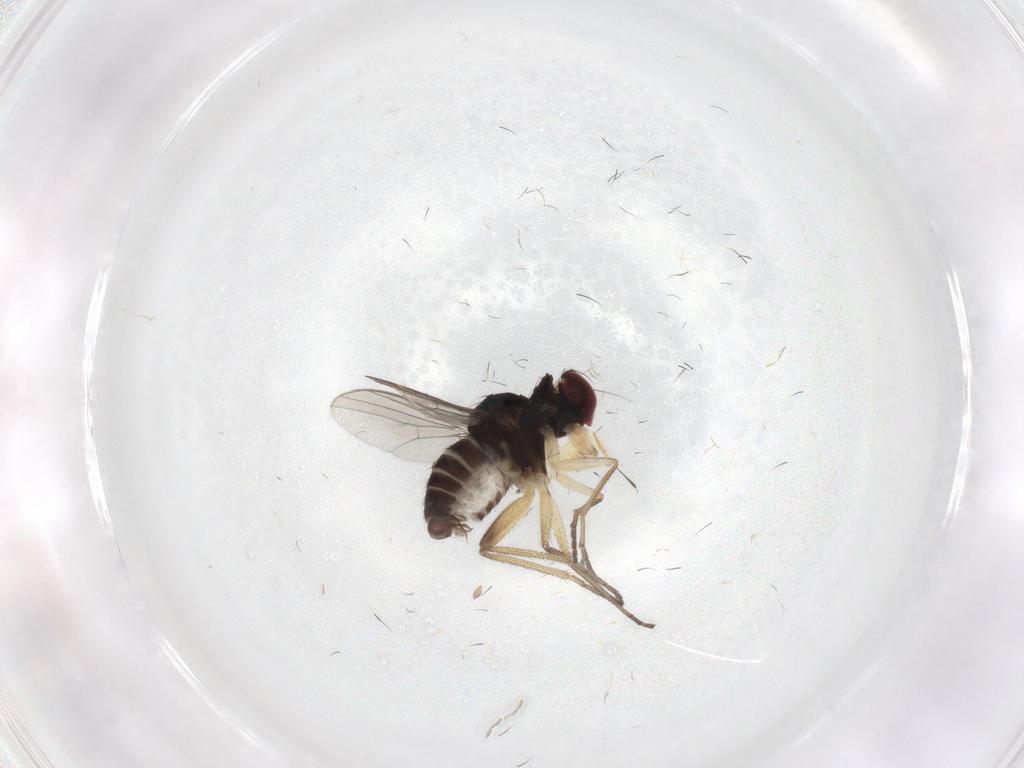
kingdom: Animalia
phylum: Arthropoda
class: Insecta
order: Diptera
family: Dolichopodidae
